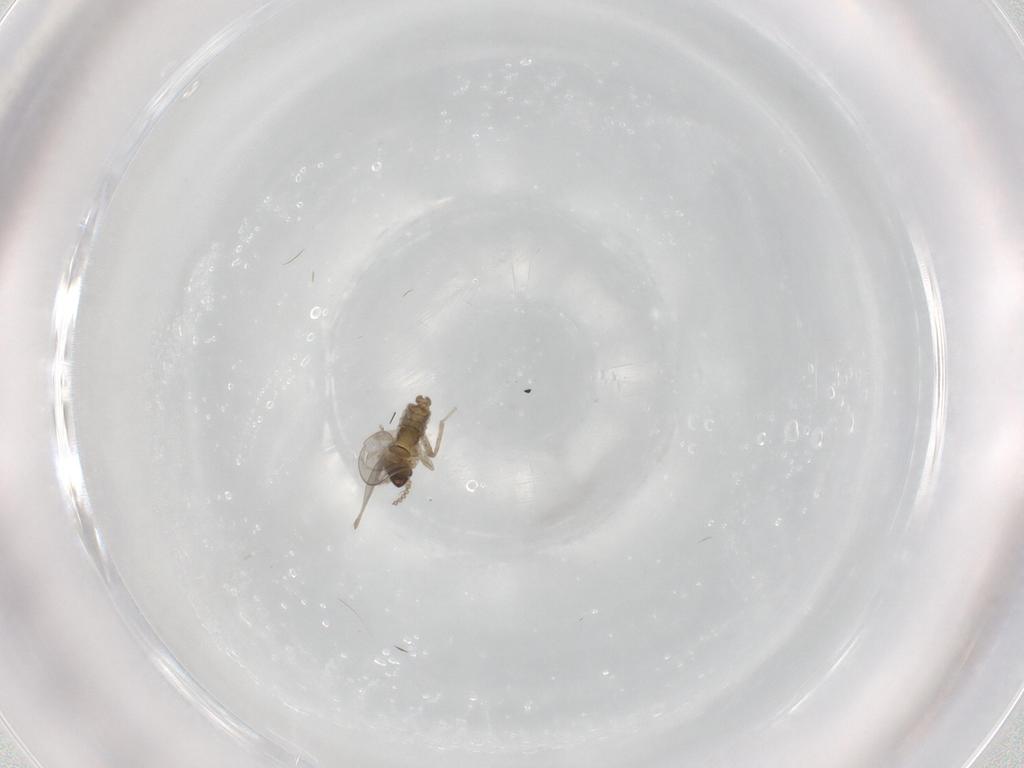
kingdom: Animalia
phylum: Arthropoda
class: Insecta
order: Diptera
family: Cecidomyiidae
